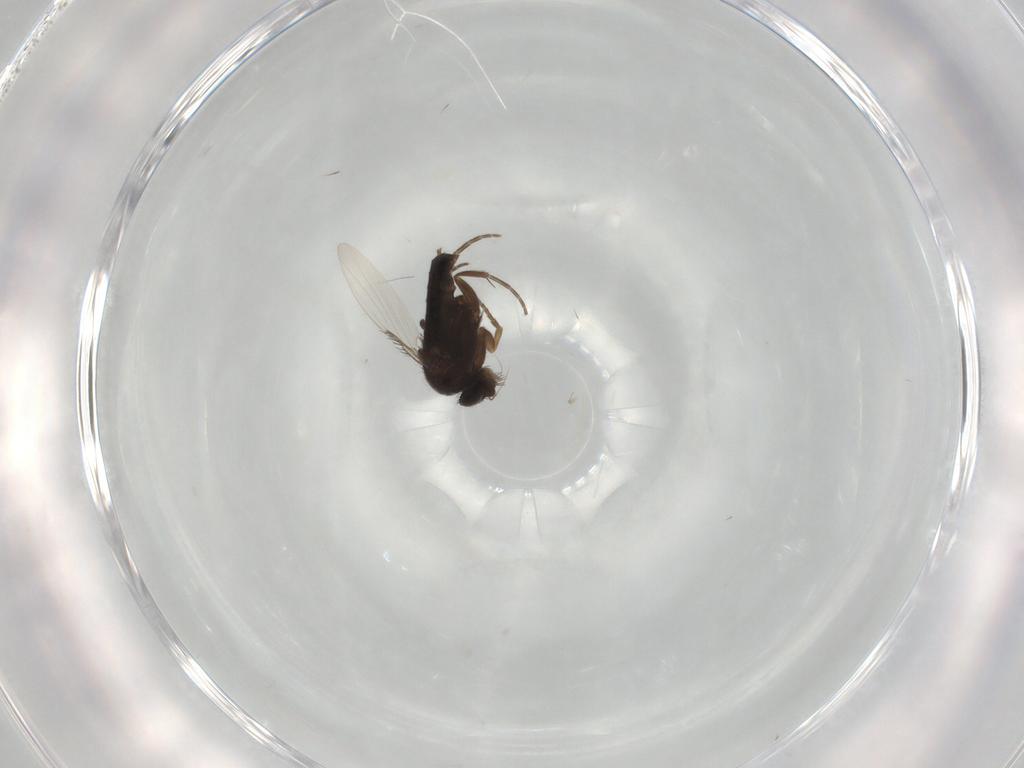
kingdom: Animalia
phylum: Arthropoda
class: Insecta
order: Diptera
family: Phoridae
